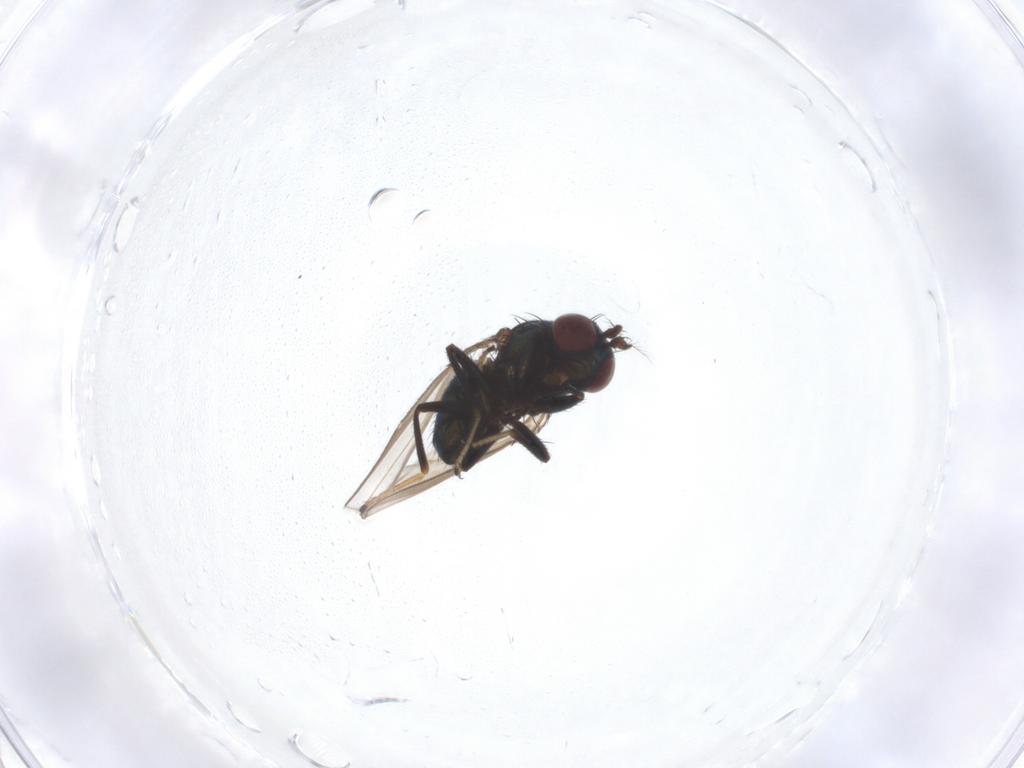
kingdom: Animalia
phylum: Arthropoda
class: Insecta
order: Diptera
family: Ephydridae
